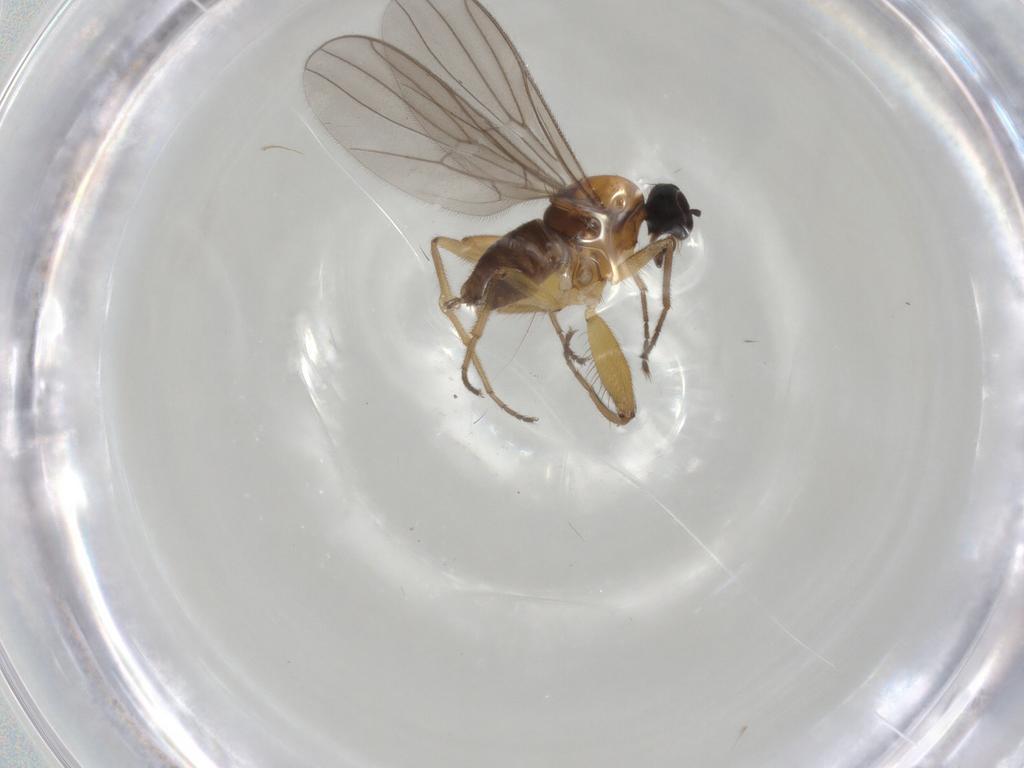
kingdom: Animalia
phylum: Arthropoda
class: Insecta
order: Diptera
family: Hybotidae
